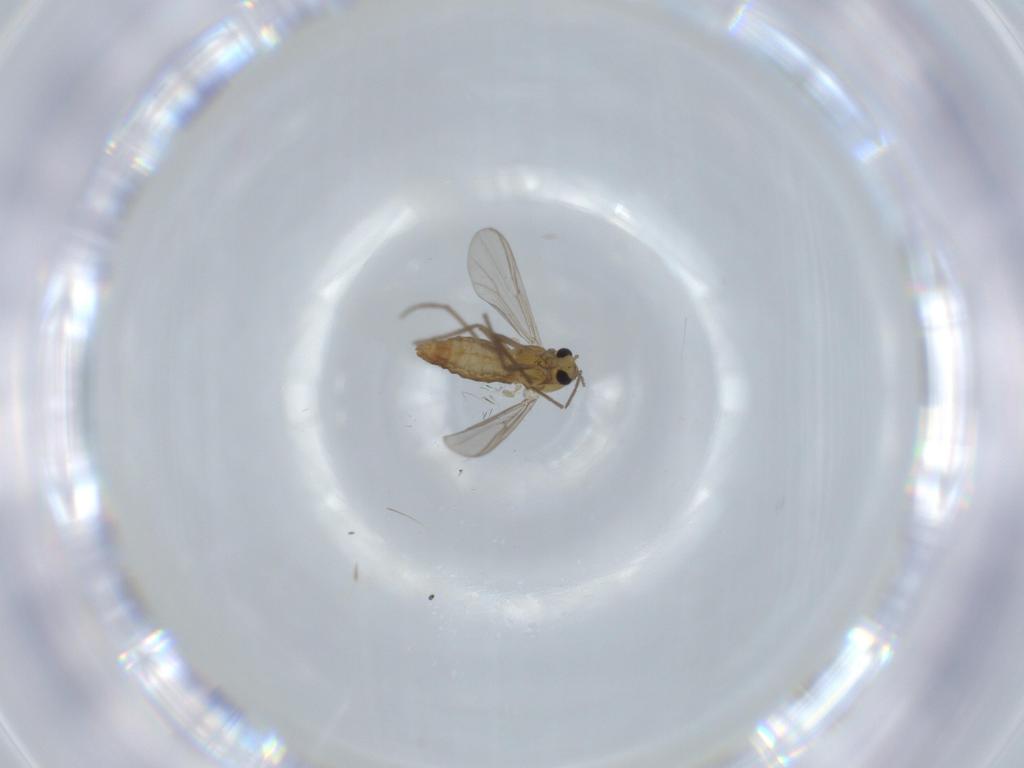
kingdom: Animalia
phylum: Arthropoda
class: Insecta
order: Diptera
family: Chironomidae
